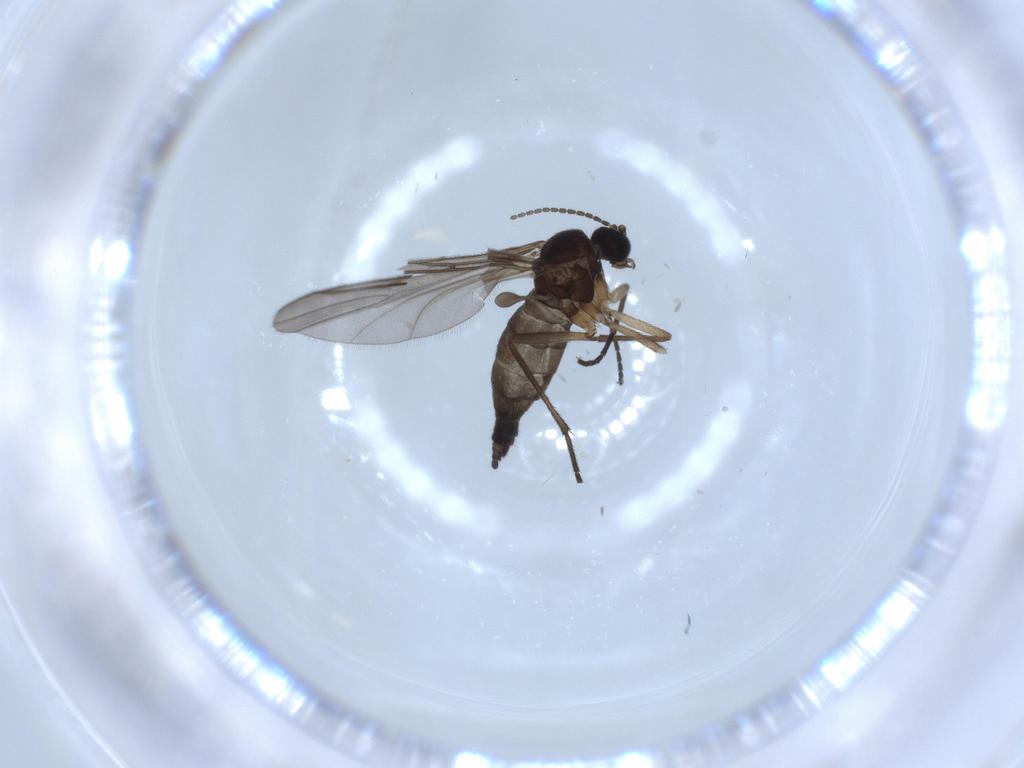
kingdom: Animalia
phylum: Arthropoda
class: Insecta
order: Diptera
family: Sciaridae
